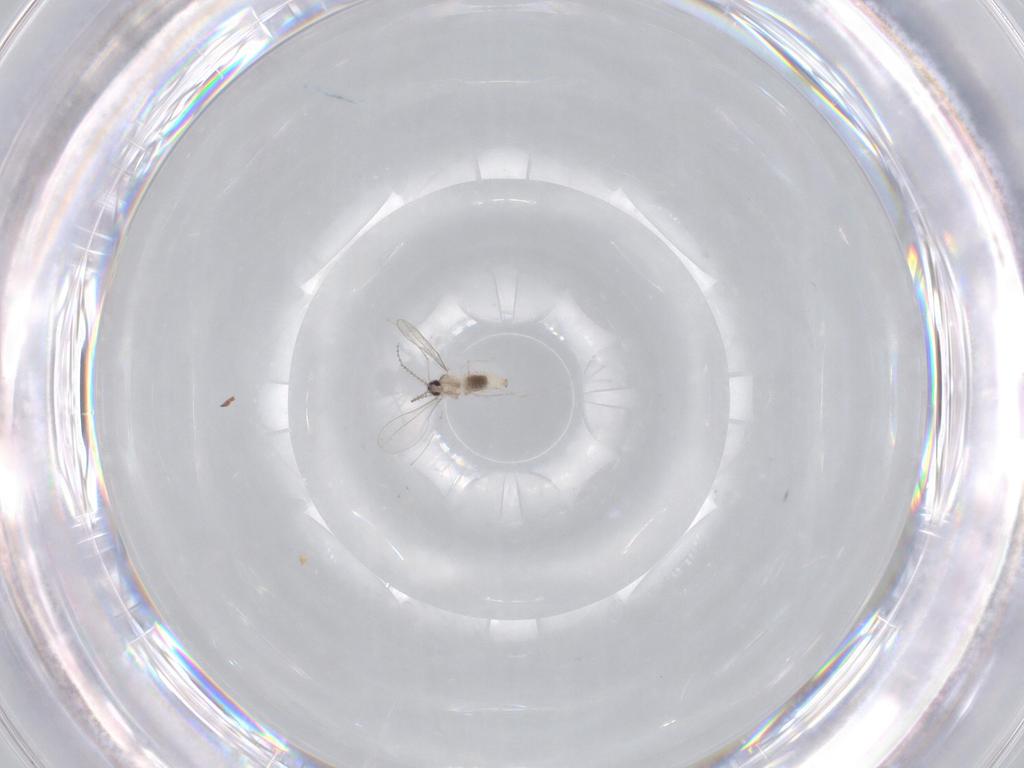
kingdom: Animalia
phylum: Arthropoda
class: Insecta
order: Diptera
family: Cecidomyiidae
